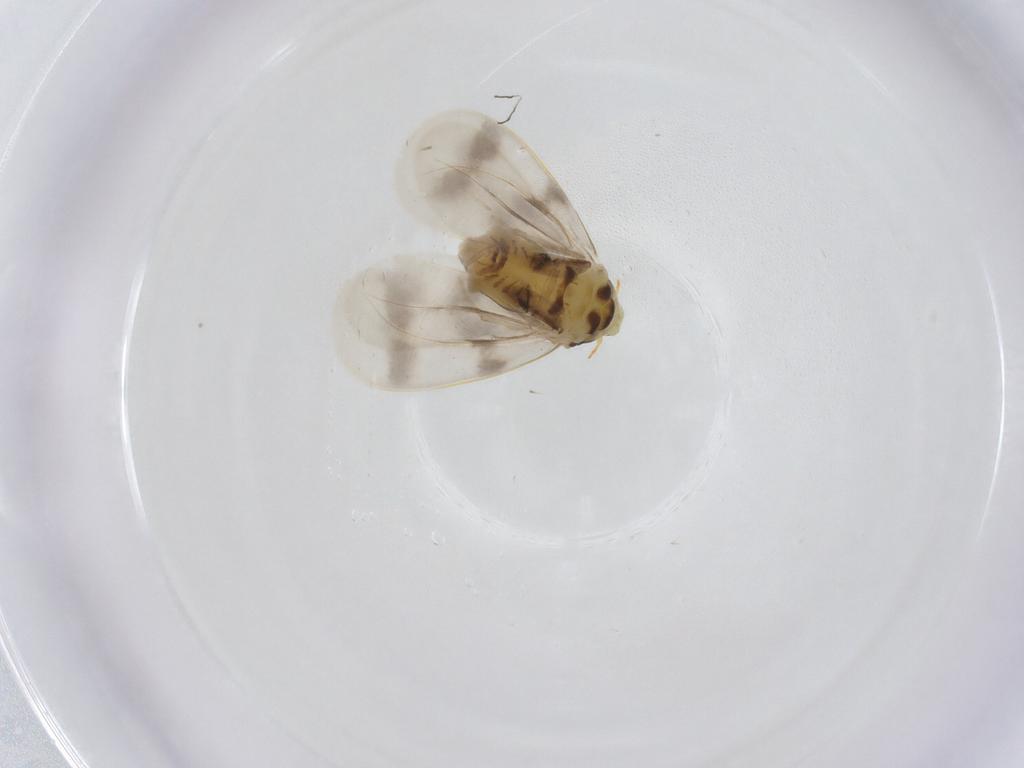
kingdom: Animalia
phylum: Arthropoda
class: Insecta
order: Hemiptera
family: Aleyrodidae
